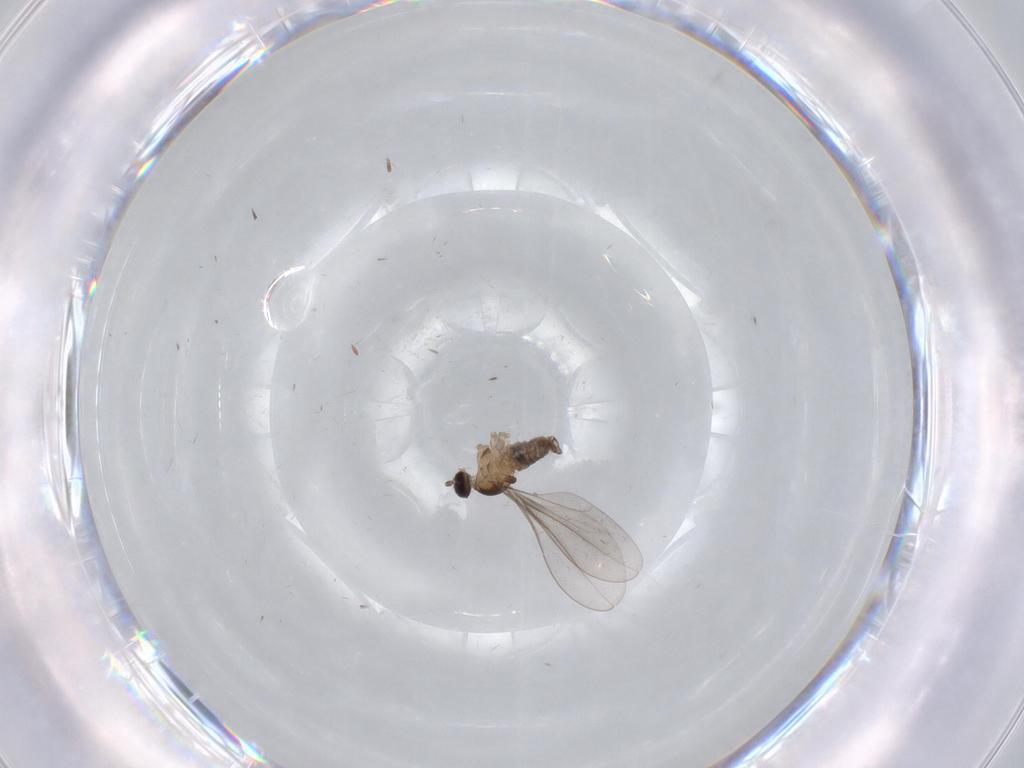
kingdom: Animalia
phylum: Arthropoda
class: Insecta
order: Diptera
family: Cecidomyiidae
